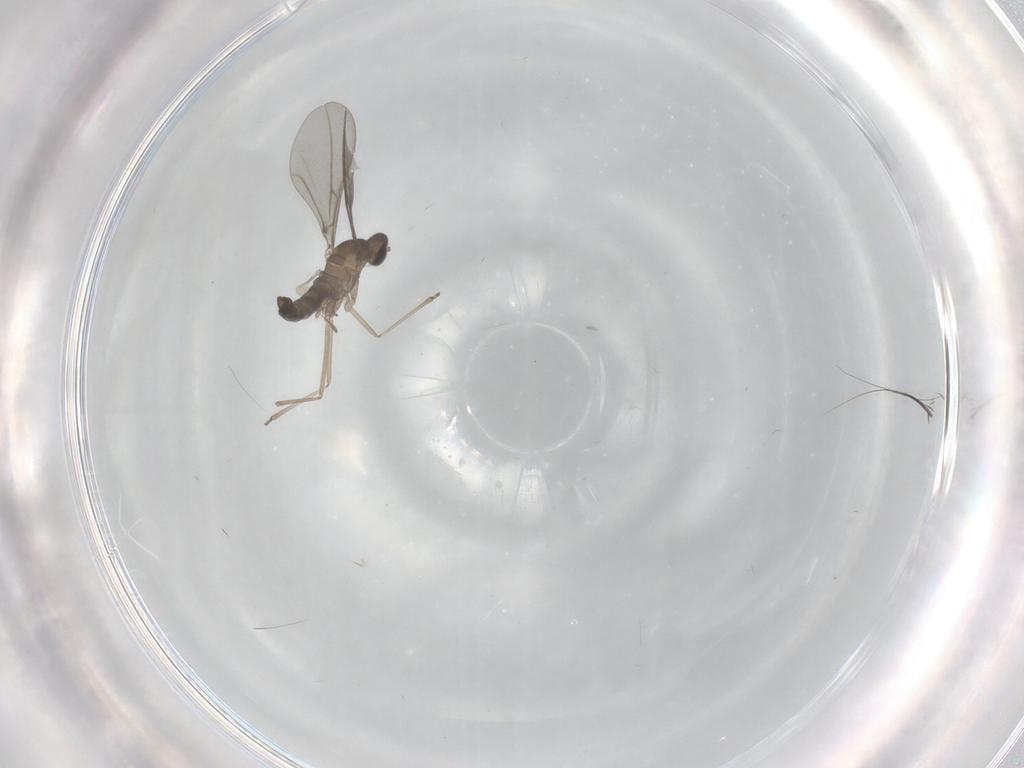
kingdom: Animalia
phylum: Arthropoda
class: Insecta
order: Diptera
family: Cecidomyiidae
